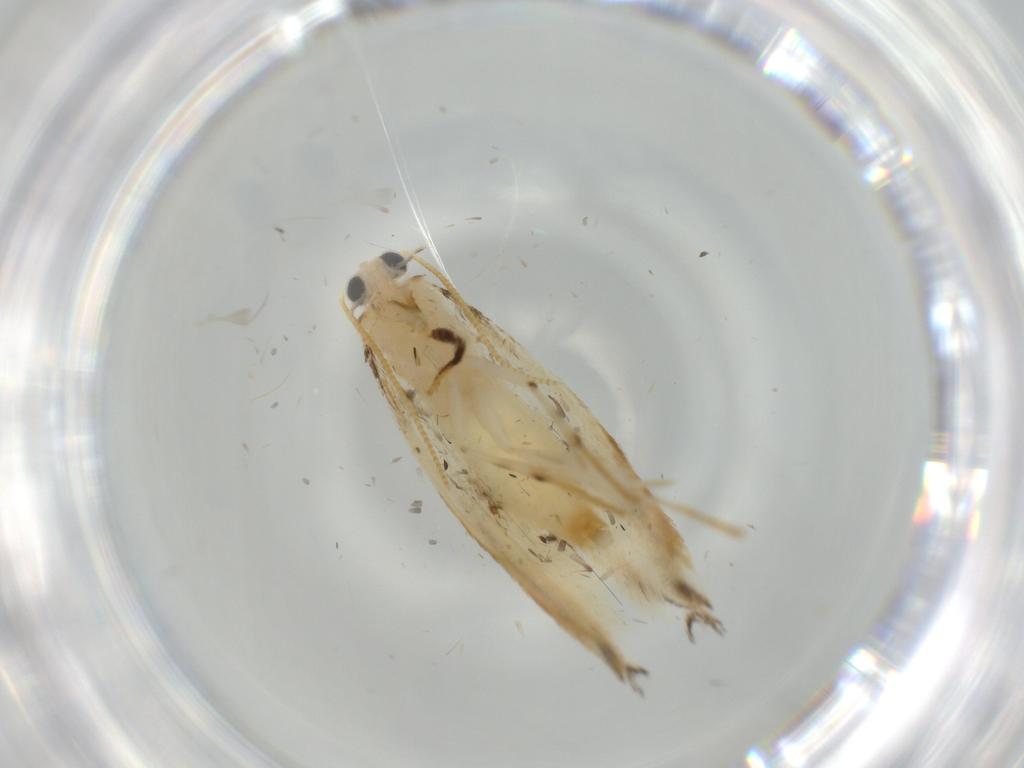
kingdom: Animalia
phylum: Arthropoda
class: Insecta
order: Lepidoptera
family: Tineidae
